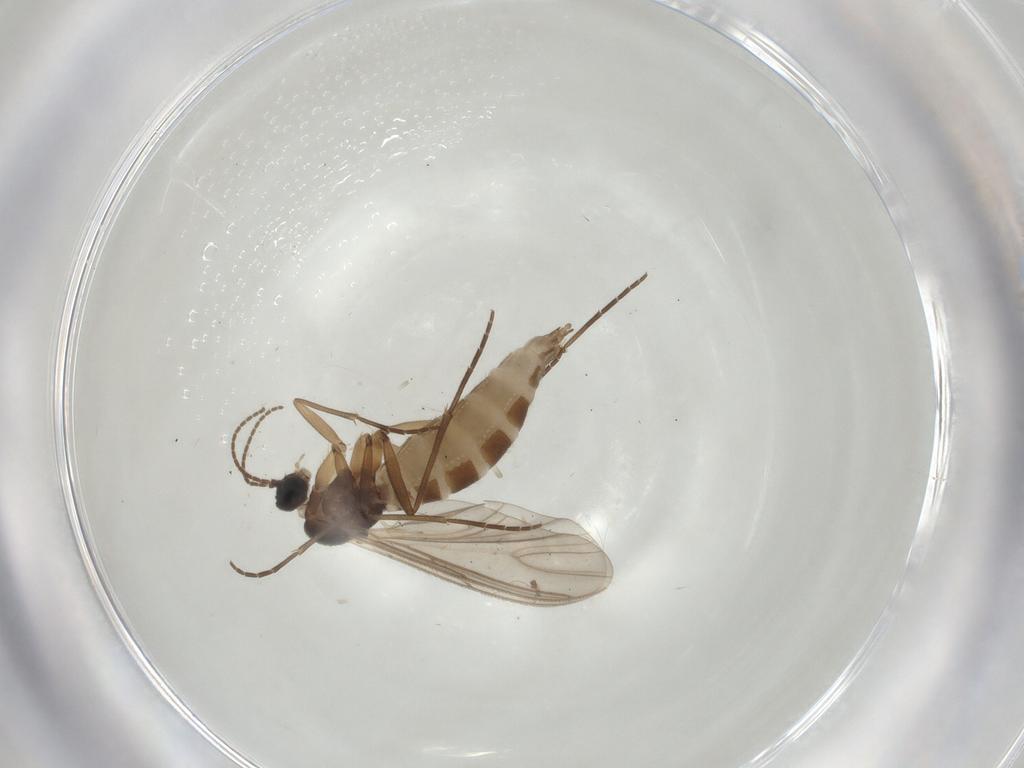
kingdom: Animalia
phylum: Arthropoda
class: Insecta
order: Diptera
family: Sciaridae
